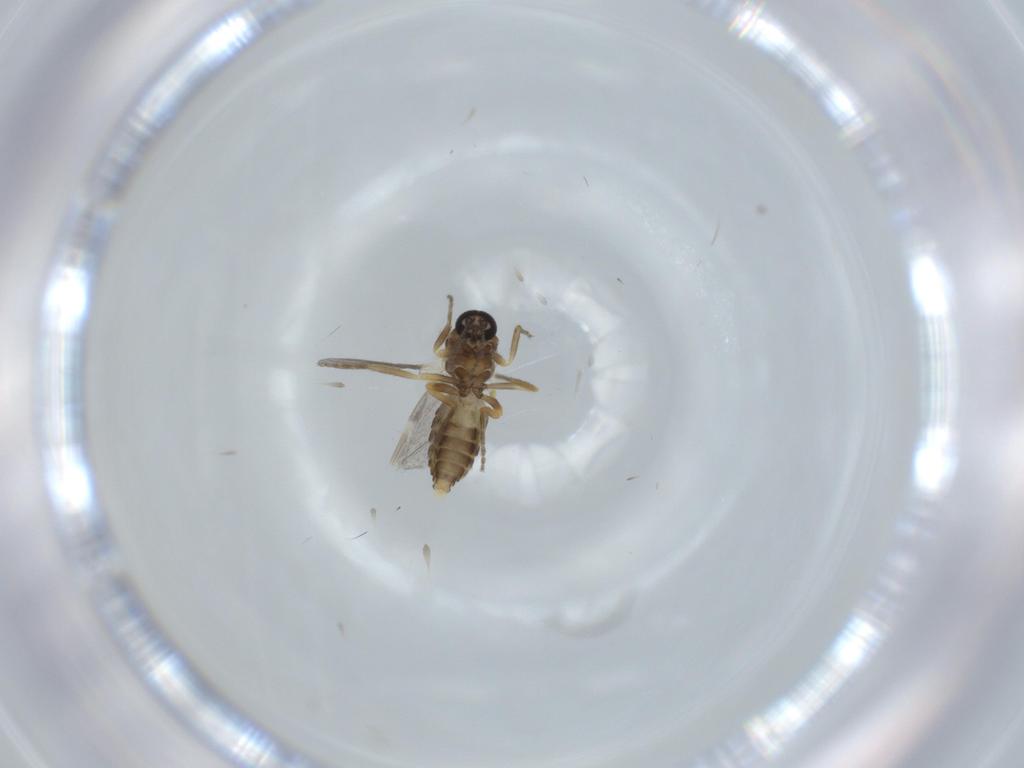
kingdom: Animalia
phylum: Arthropoda
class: Insecta
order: Diptera
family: Ceratopogonidae
